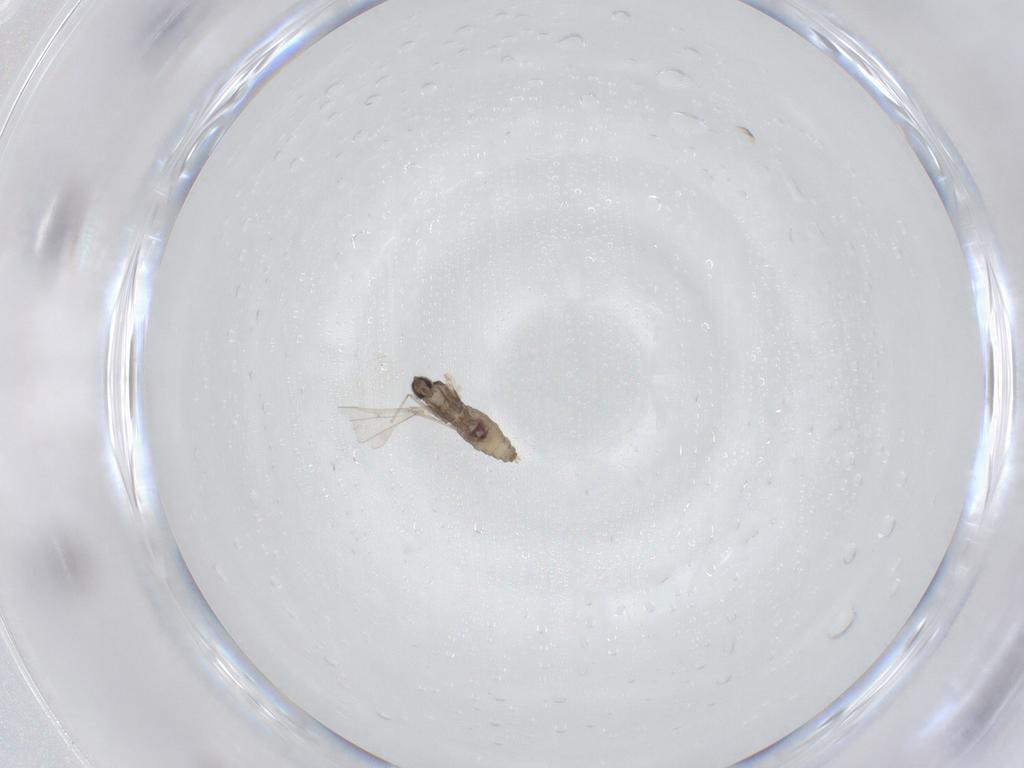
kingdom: Animalia
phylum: Arthropoda
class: Insecta
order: Diptera
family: Cecidomyiidae
